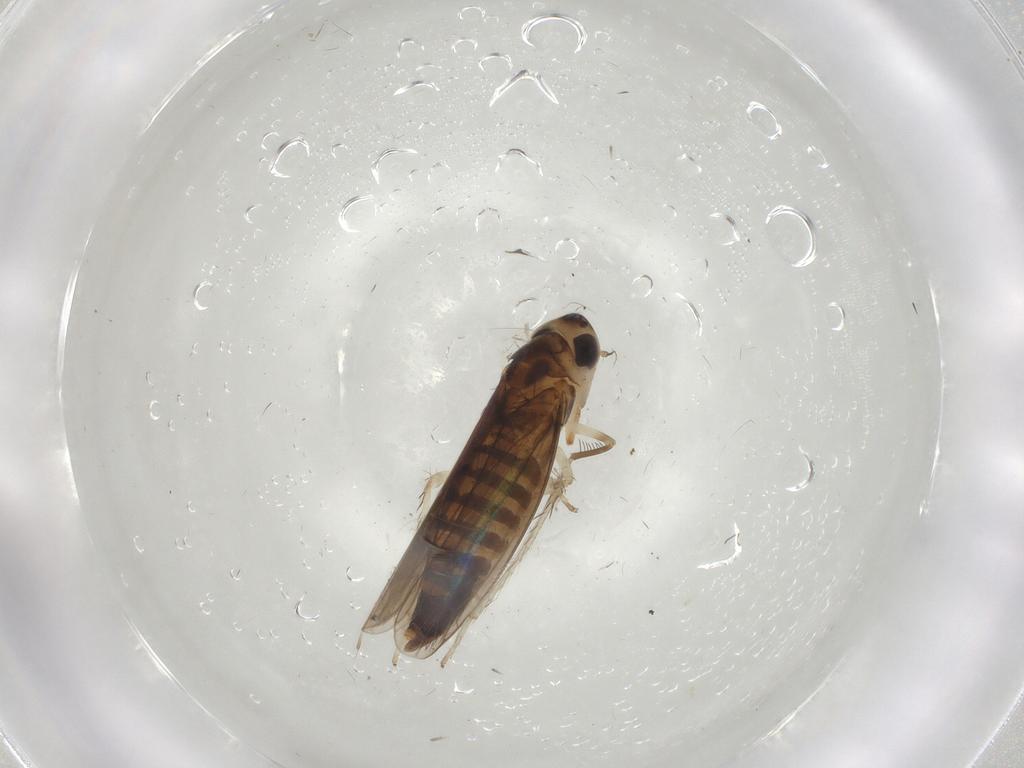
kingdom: Animalia
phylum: Arthropoda
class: Insecta
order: Hemiptera
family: Cicadellidae
